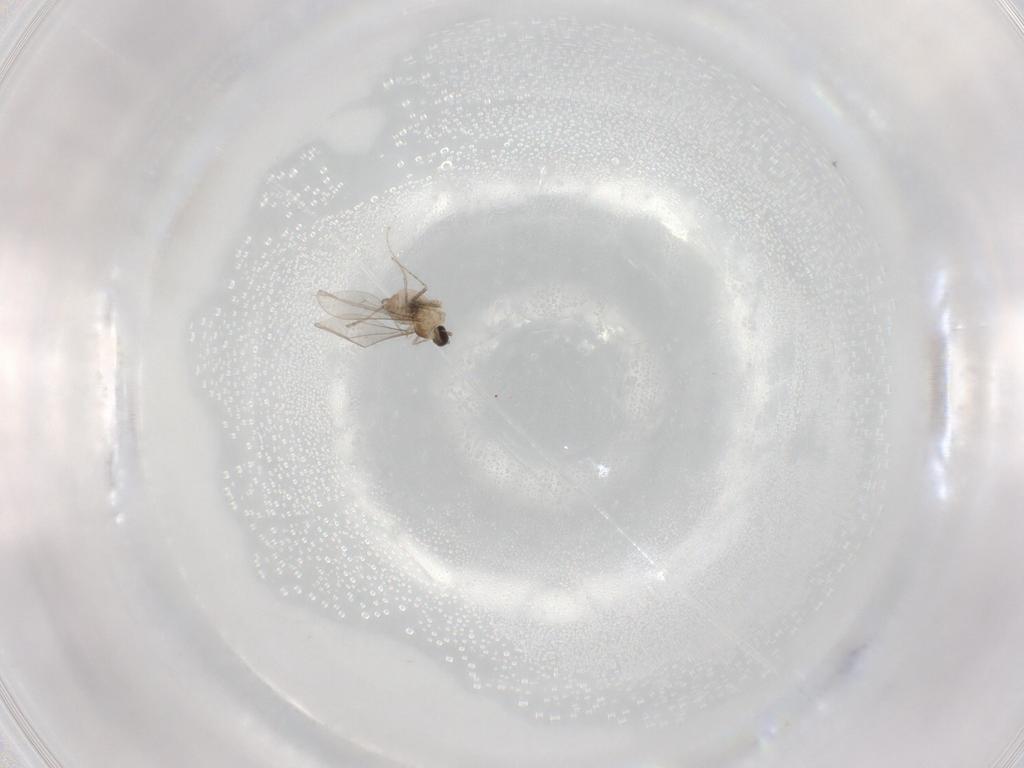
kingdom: Animalia
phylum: Arthropoda
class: Insecta
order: Diptera
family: Cecidomyiidae
